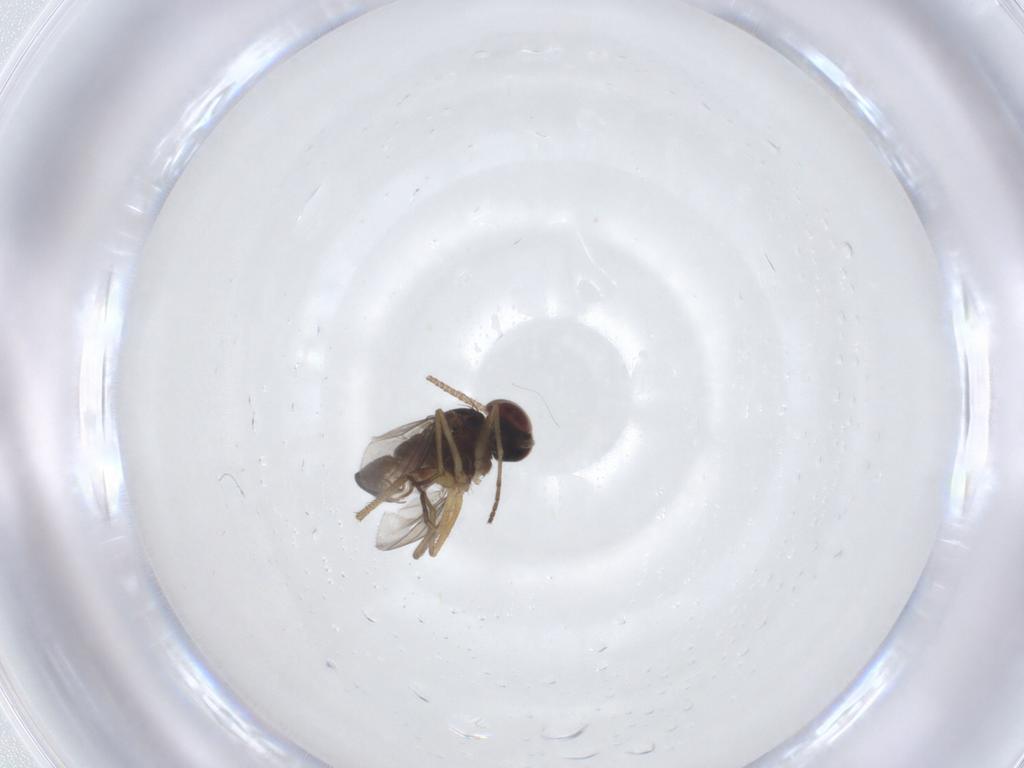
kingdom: Animalia
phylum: Arthropoda
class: Insecta
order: Diptera
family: Dolichopodidae
